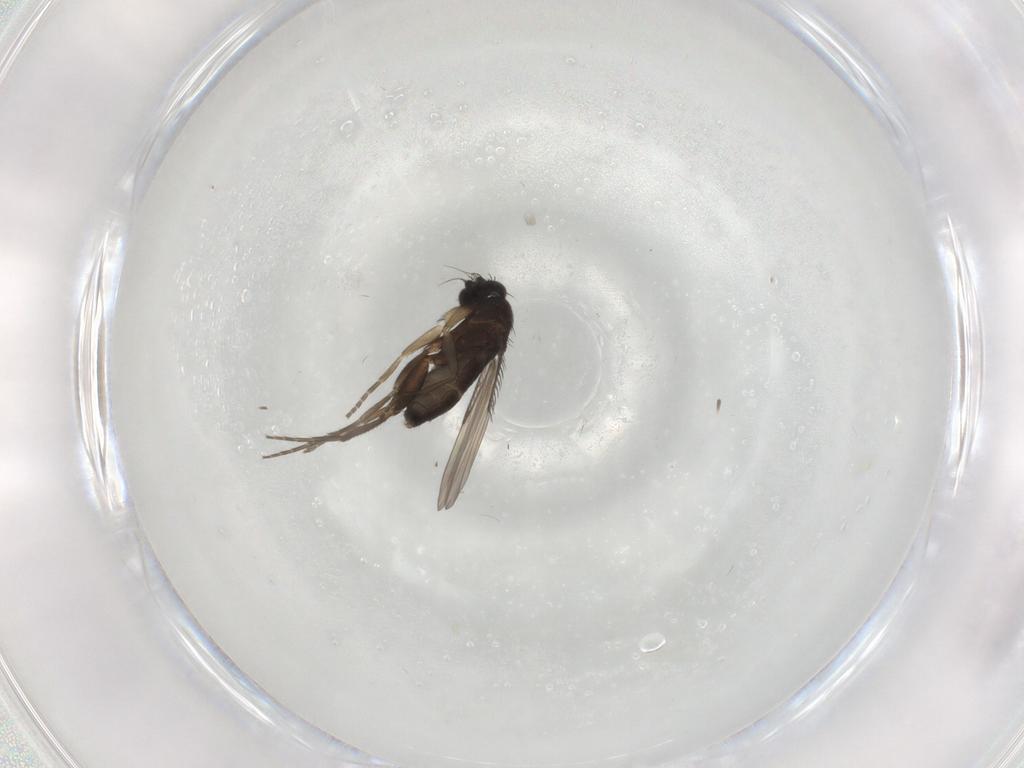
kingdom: Animalia
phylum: Arthropoda
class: Insecta
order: Diptera
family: Phoridae
